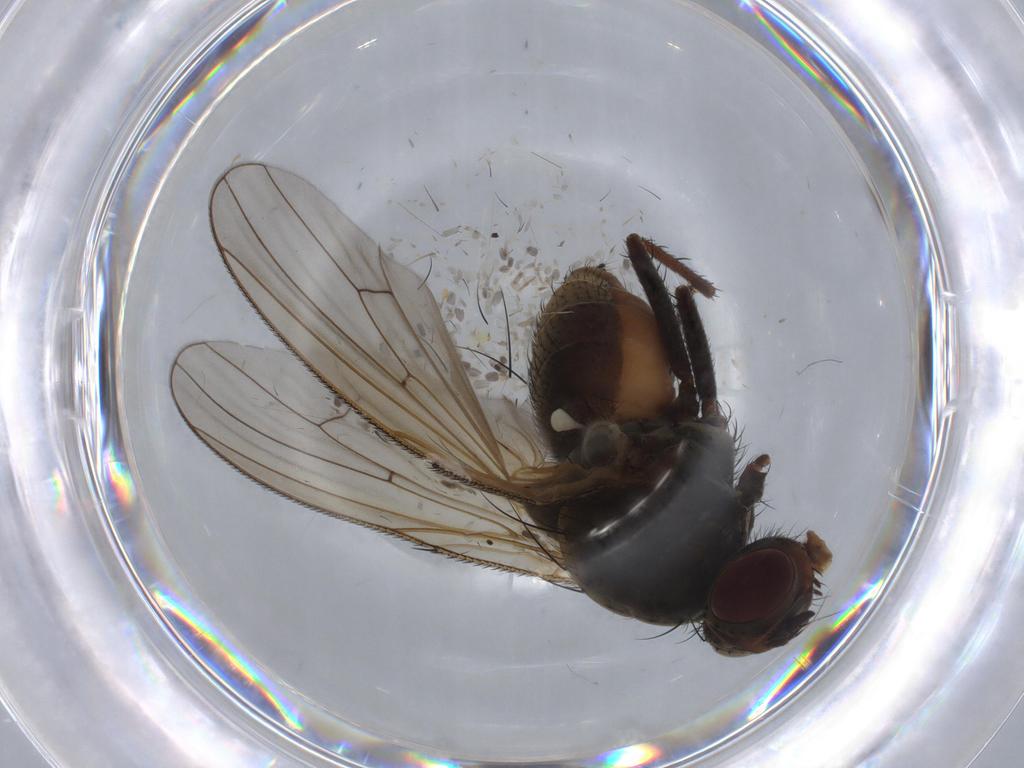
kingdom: Animalia
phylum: Arthropoda
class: Insecta
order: Diptera
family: Anthomyiidae
